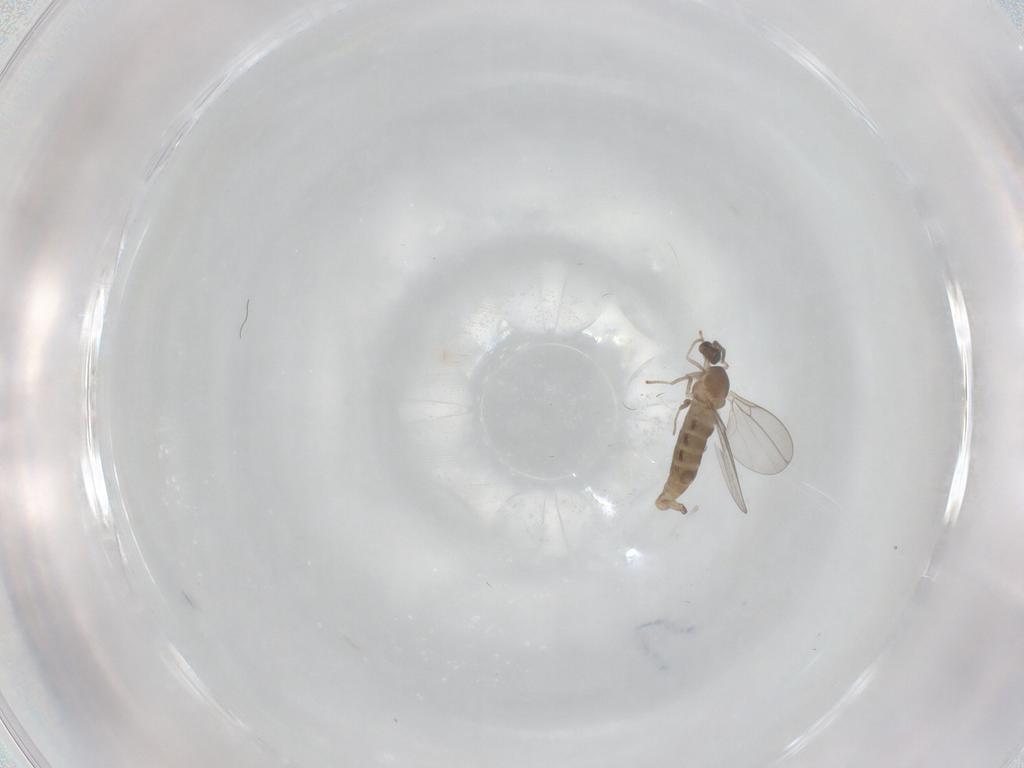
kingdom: Animalia
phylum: Arthropoda
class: Insecta
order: Diptera
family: Cecidomyiidae
